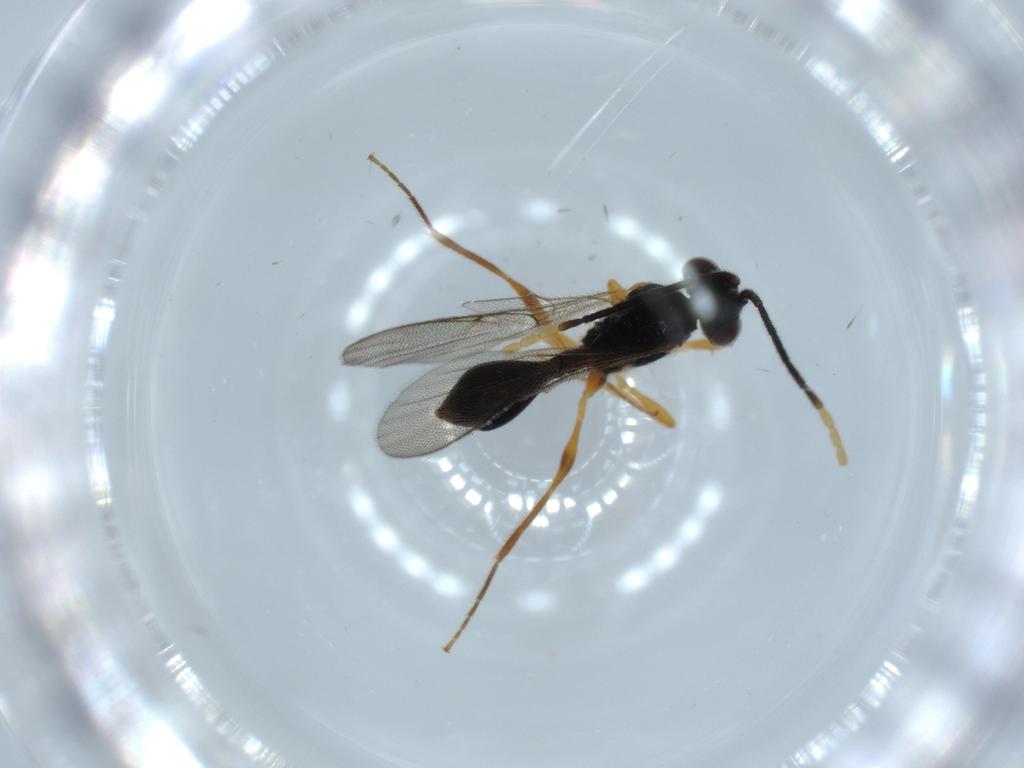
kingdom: Animalia
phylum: Arthropoda
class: Insecta
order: Hymenoptera
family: Diapriidae
